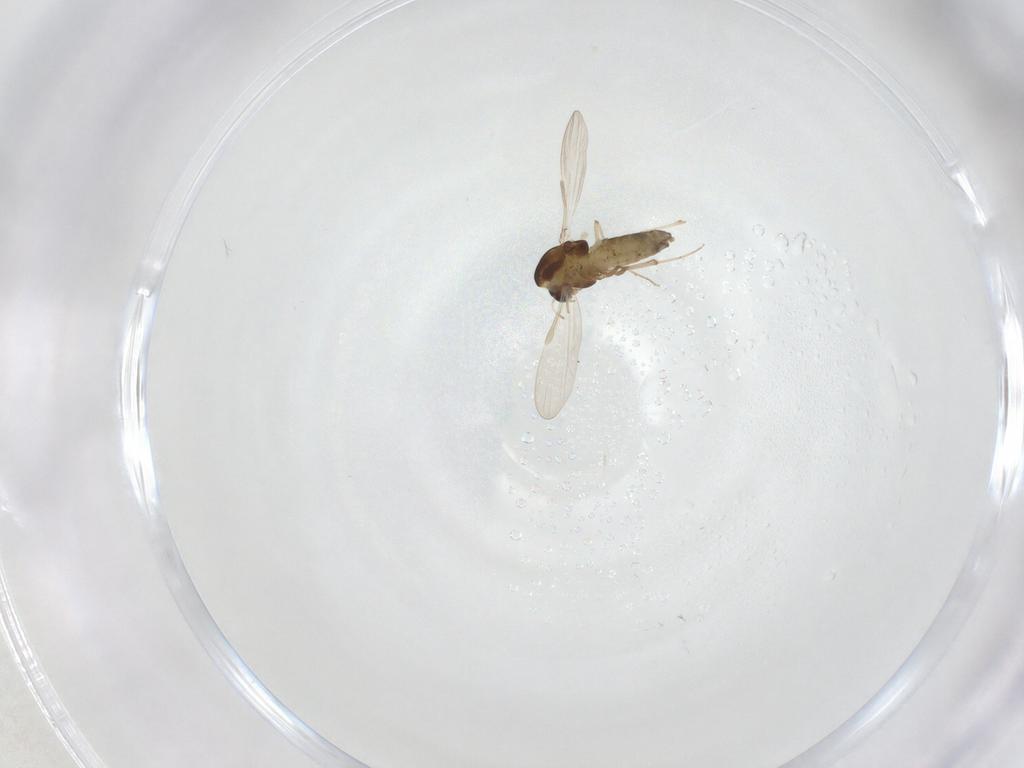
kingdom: Animalia
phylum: Arthropoda
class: Insecta
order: Diptera
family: Chironomidae
